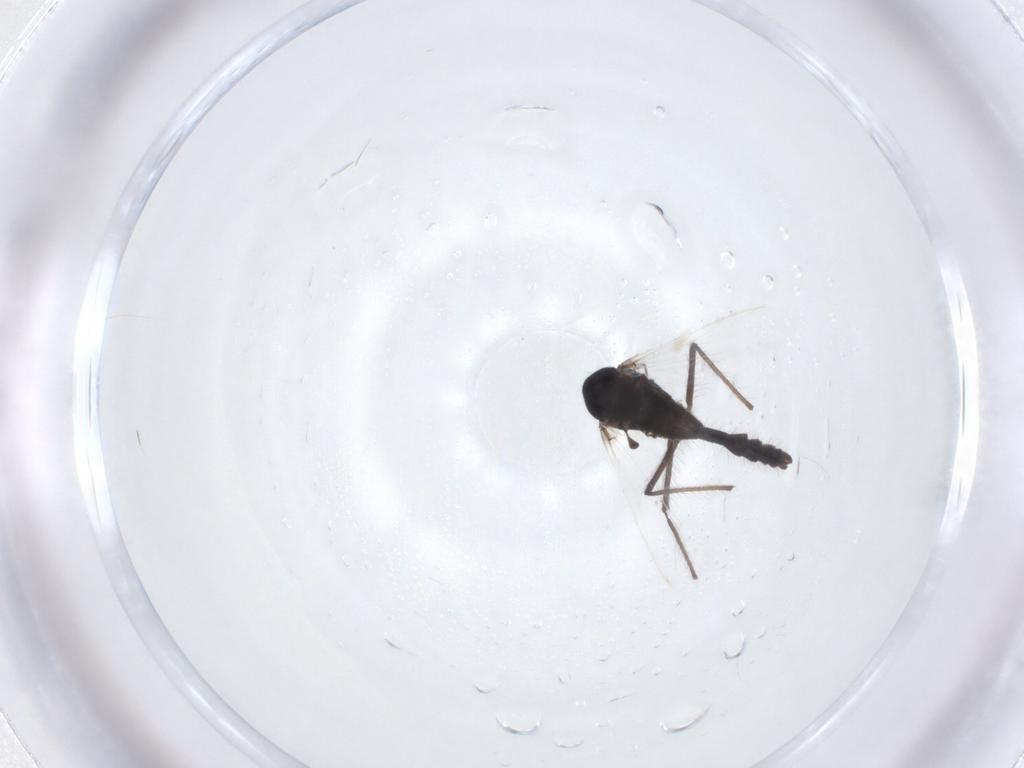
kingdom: Animalia
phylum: Arthropoda
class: Insecta
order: Diptera
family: Chironomidae
